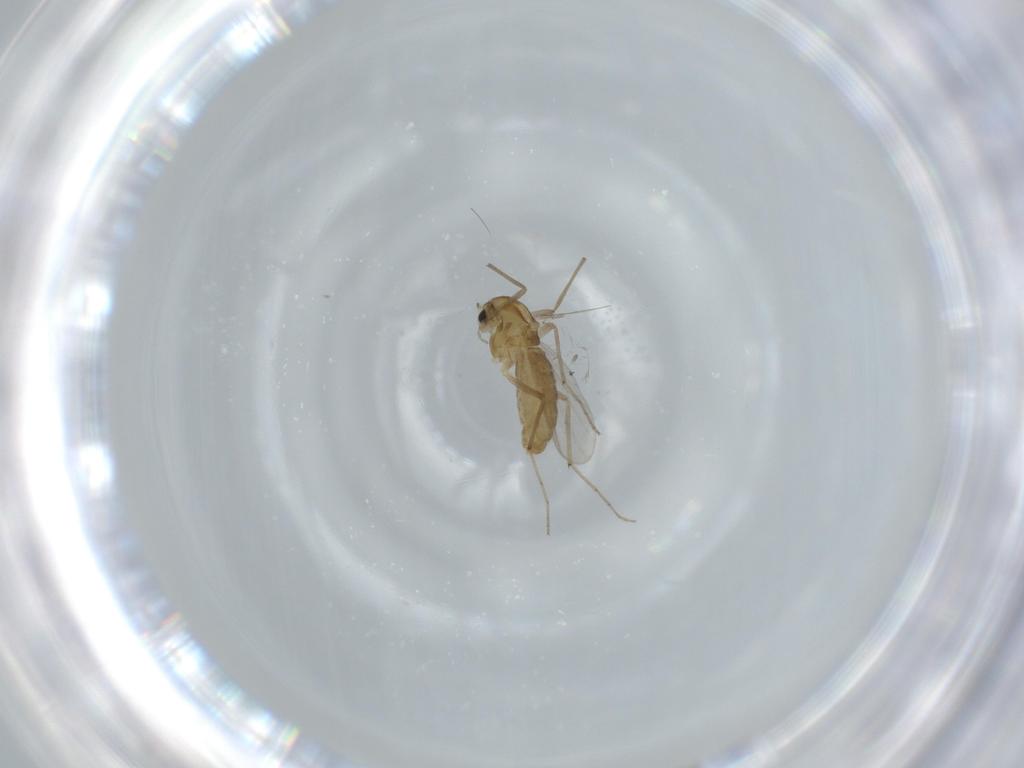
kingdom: Animalia
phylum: Arthropoda
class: Insecta
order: Diptera
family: Chironomidae
